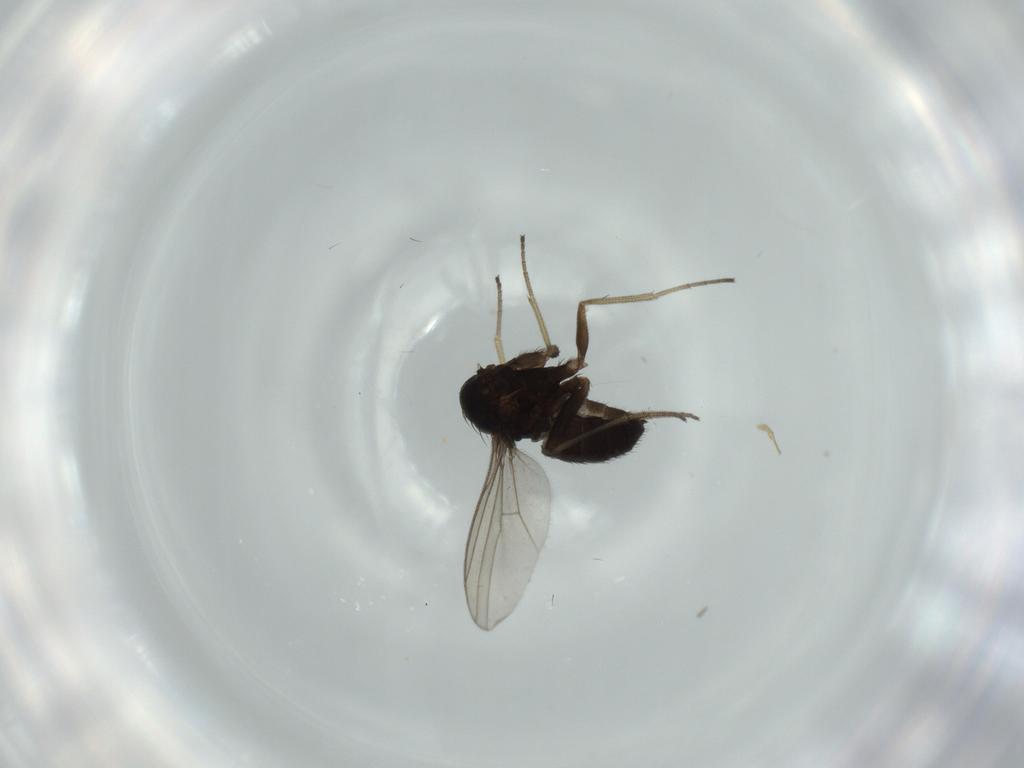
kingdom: Animalia
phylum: Arthropoda
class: Insecta
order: Diptera
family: Dolichopodidae
